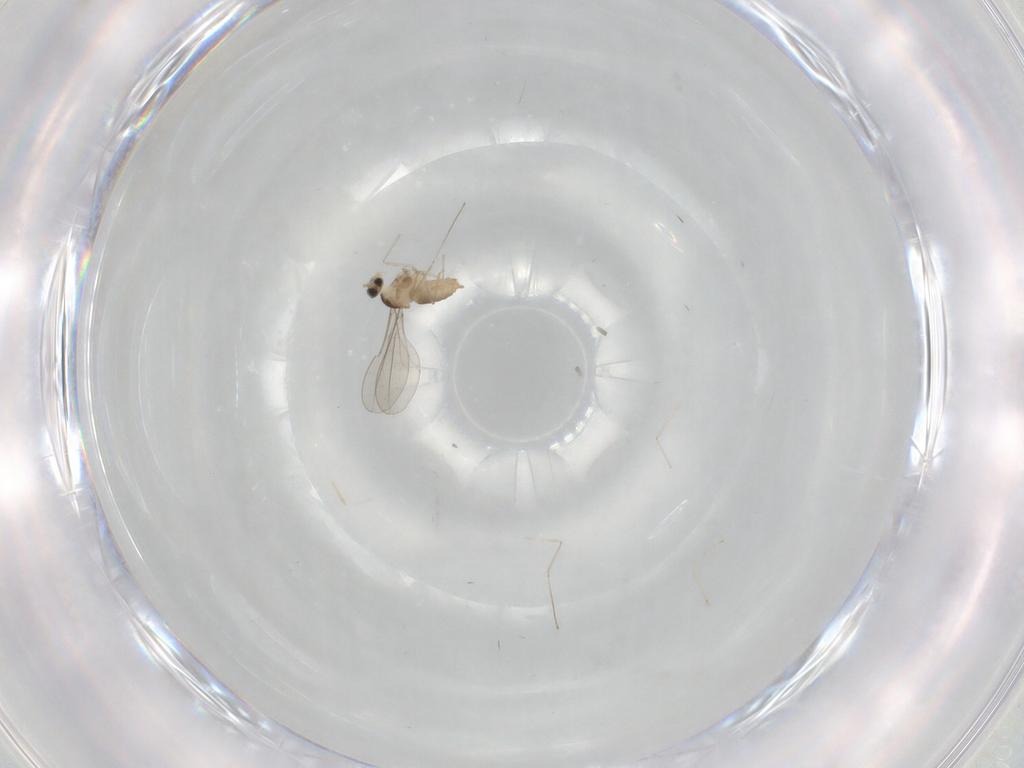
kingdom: Animalia
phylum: Arthropoda
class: Insecta
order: Diptera
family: Cecidomyiidae
